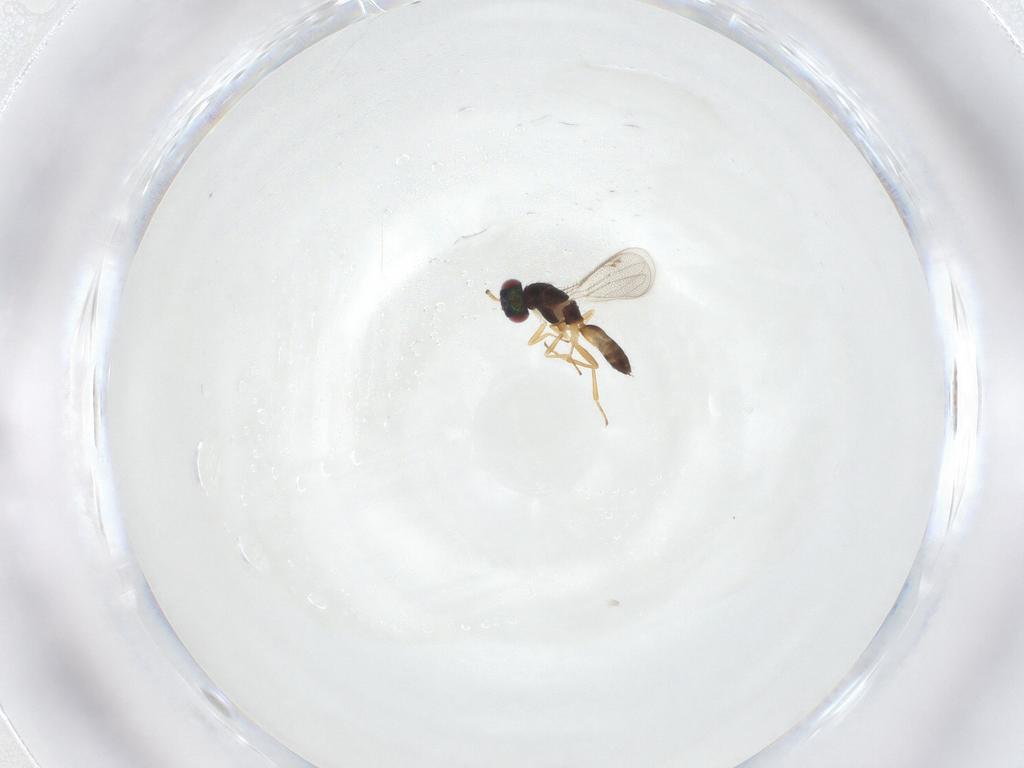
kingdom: Animalia
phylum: Arthropoda
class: Insecta
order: Hymenoptera
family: Eulophidae
